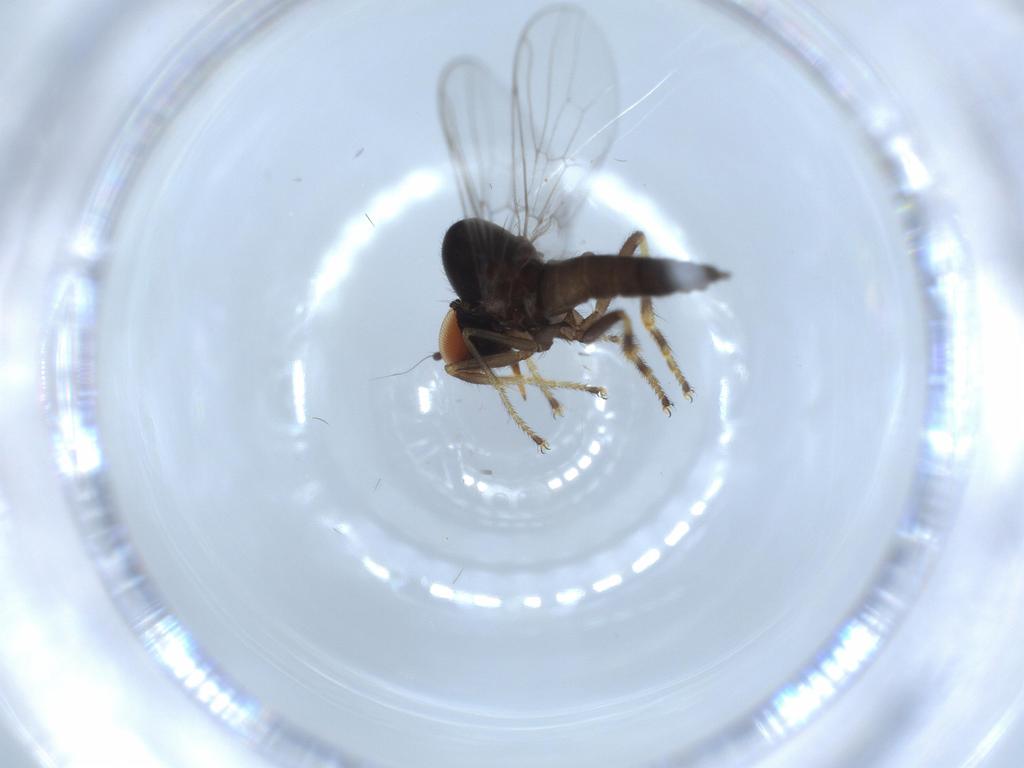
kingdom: Animalia
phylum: Arthropoda
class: Insecta
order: Diptera
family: Hybotidae
